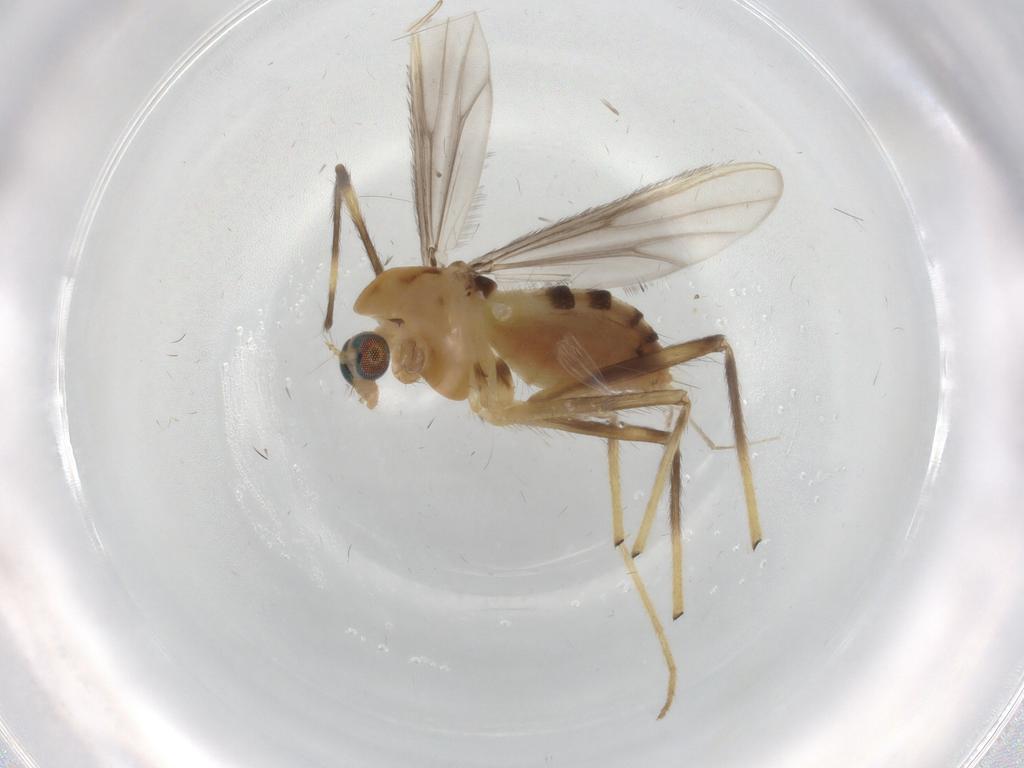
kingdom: Animalia
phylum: Arthropoda
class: Insecta
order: Diptera
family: Chironomidae
